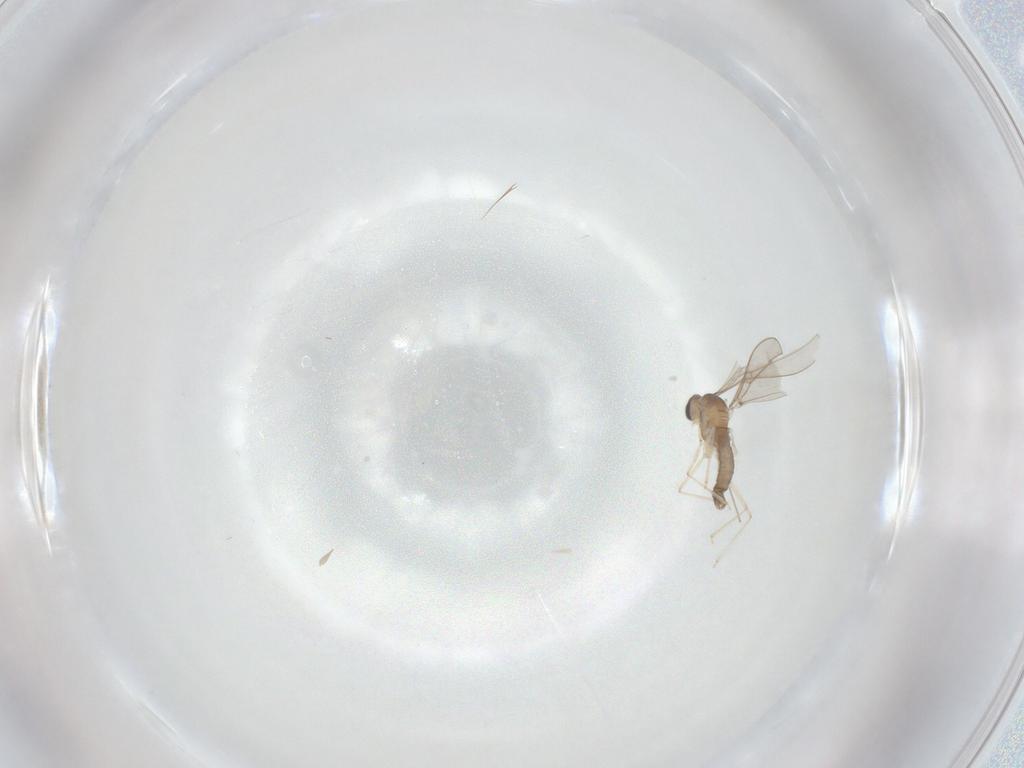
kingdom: Animalia
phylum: Arthropoda
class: Insecta
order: Diptera
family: Cecidomyiidae
